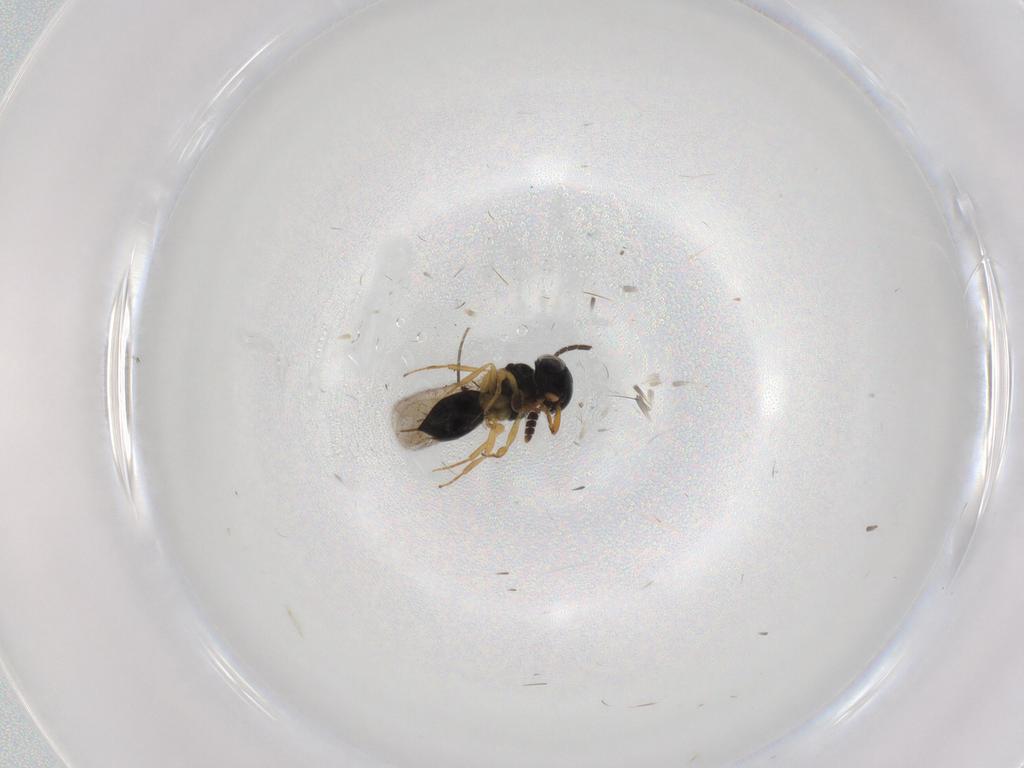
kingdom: Animalia
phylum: Arthropoda
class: Insecta
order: Hymenoptera
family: Scelionidae
